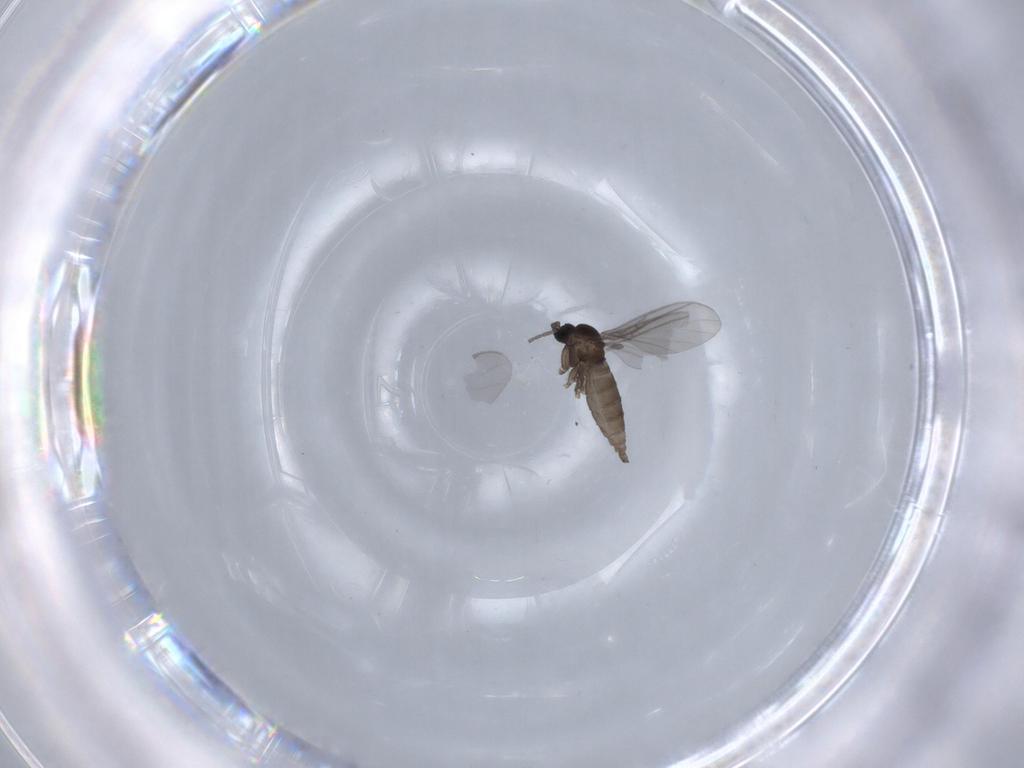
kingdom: Animalia
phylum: Arthropoda
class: Insecta
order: Diptera
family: Sciaridae
